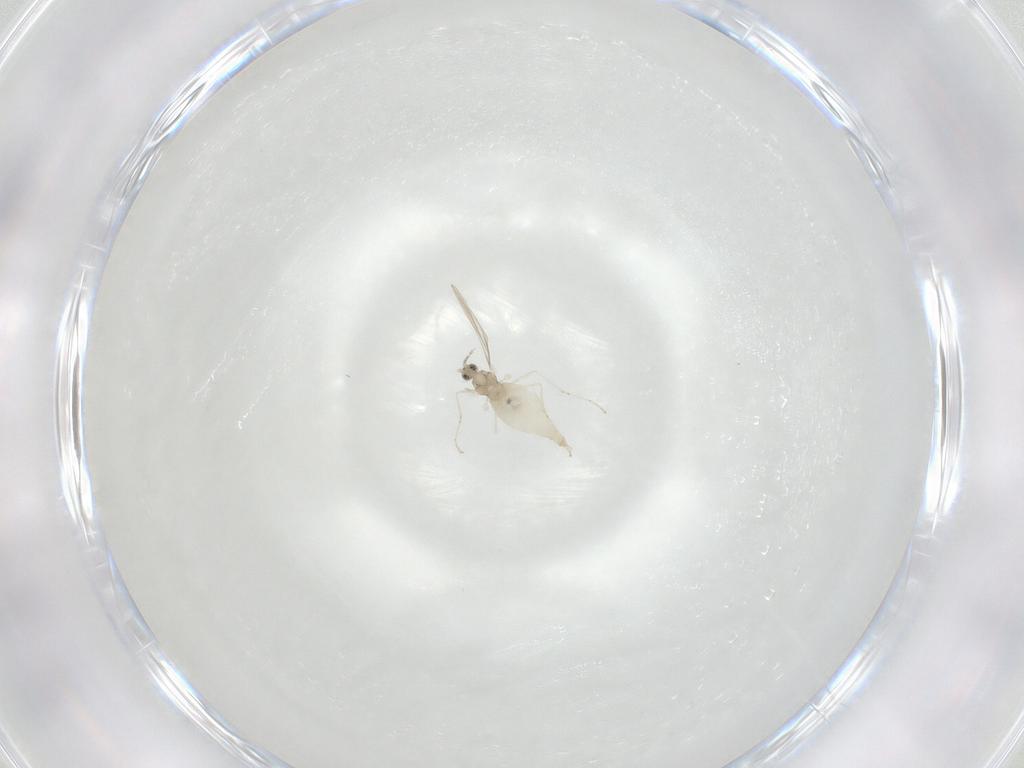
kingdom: Animalia
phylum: Arthropoda
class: Insecta
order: Diptera
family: Cecidomyiidae
